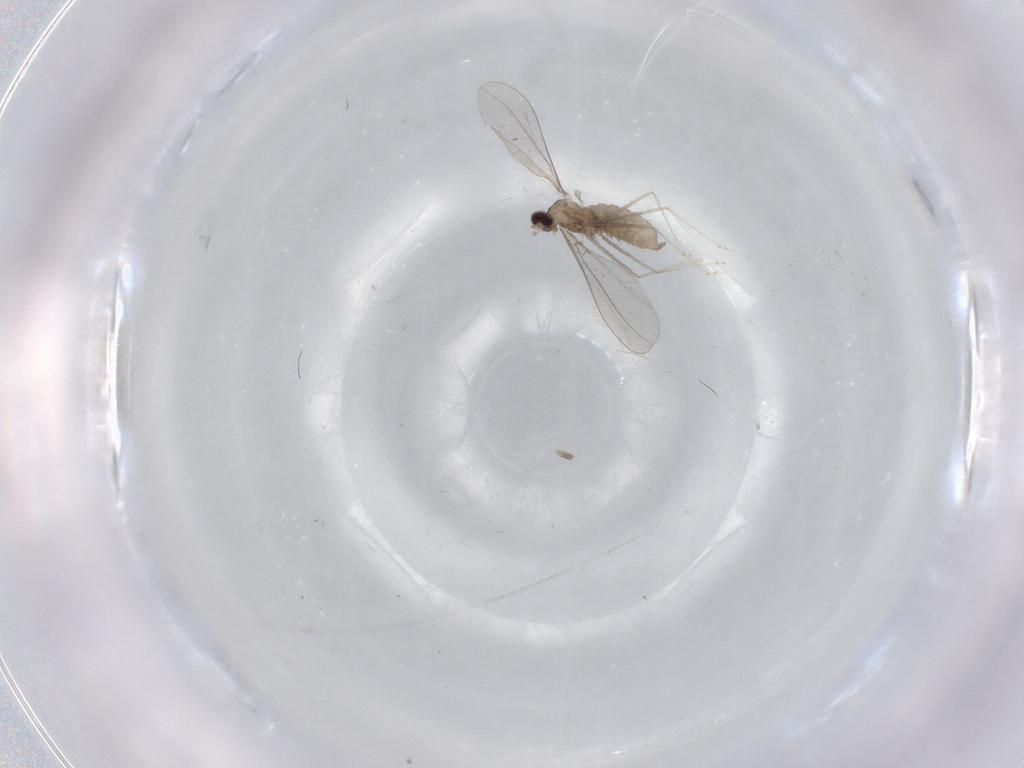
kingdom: Animalia
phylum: Arthropoda
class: Insecta
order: Diptera
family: Cecidomyiidae
